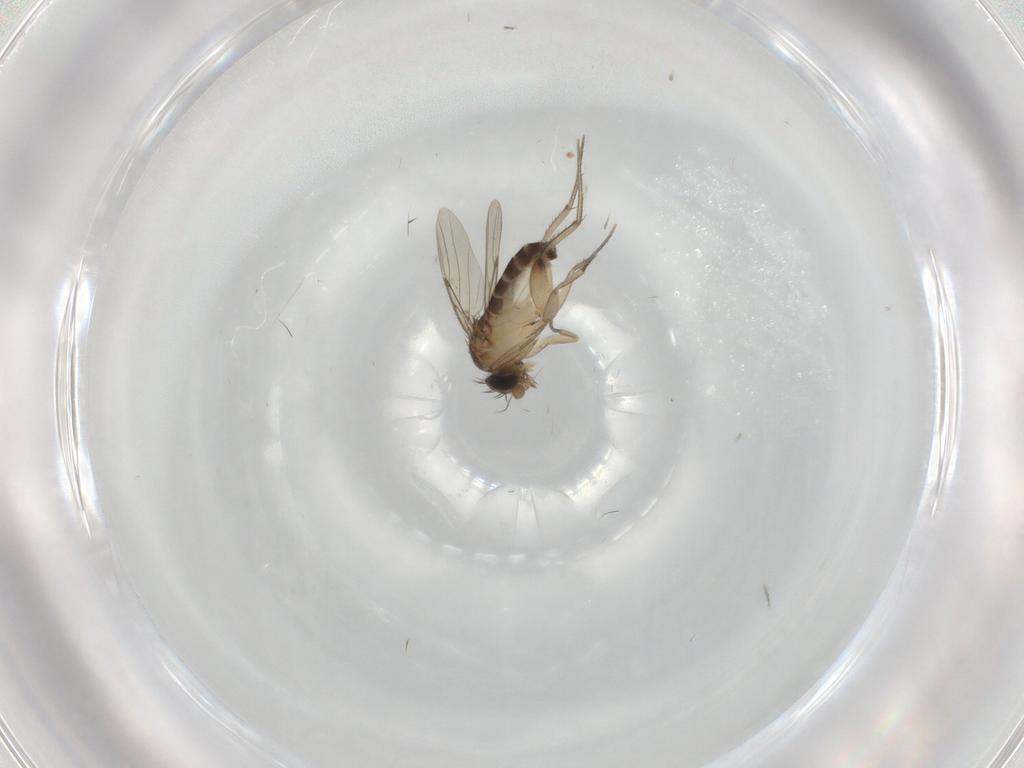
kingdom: Animalia
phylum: Arthropoda
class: Insecta
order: Diptera
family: Phoridae
